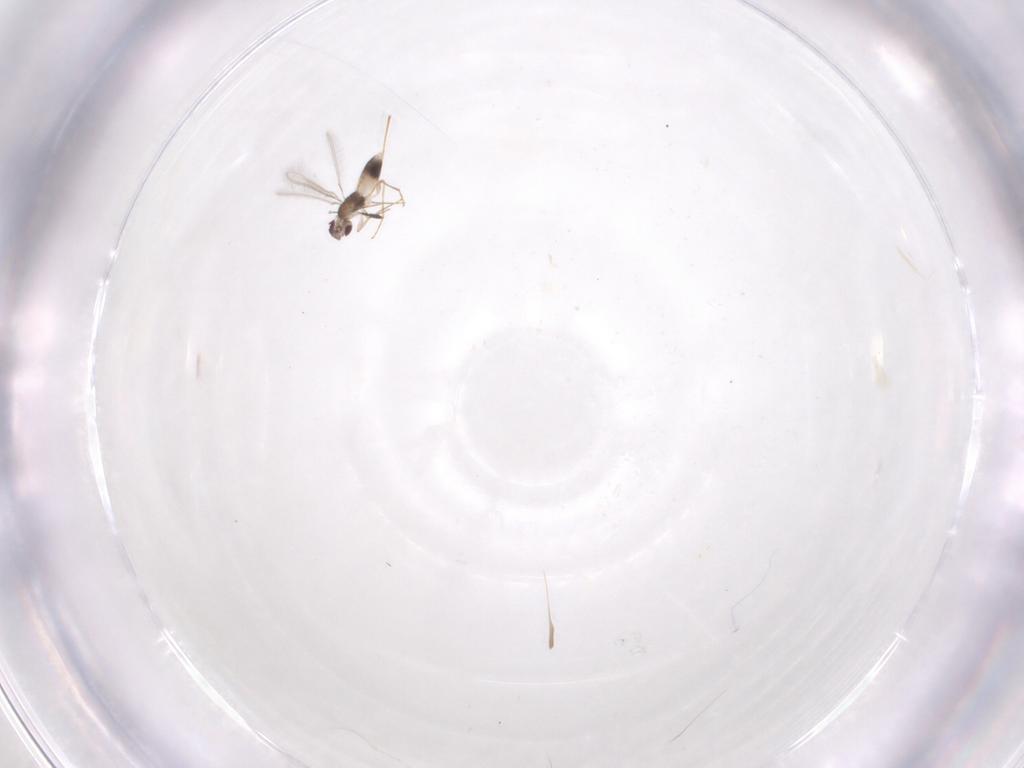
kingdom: Animalia
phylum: Arthropoda
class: Insecta
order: Hymenoptera
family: Mymaridae
